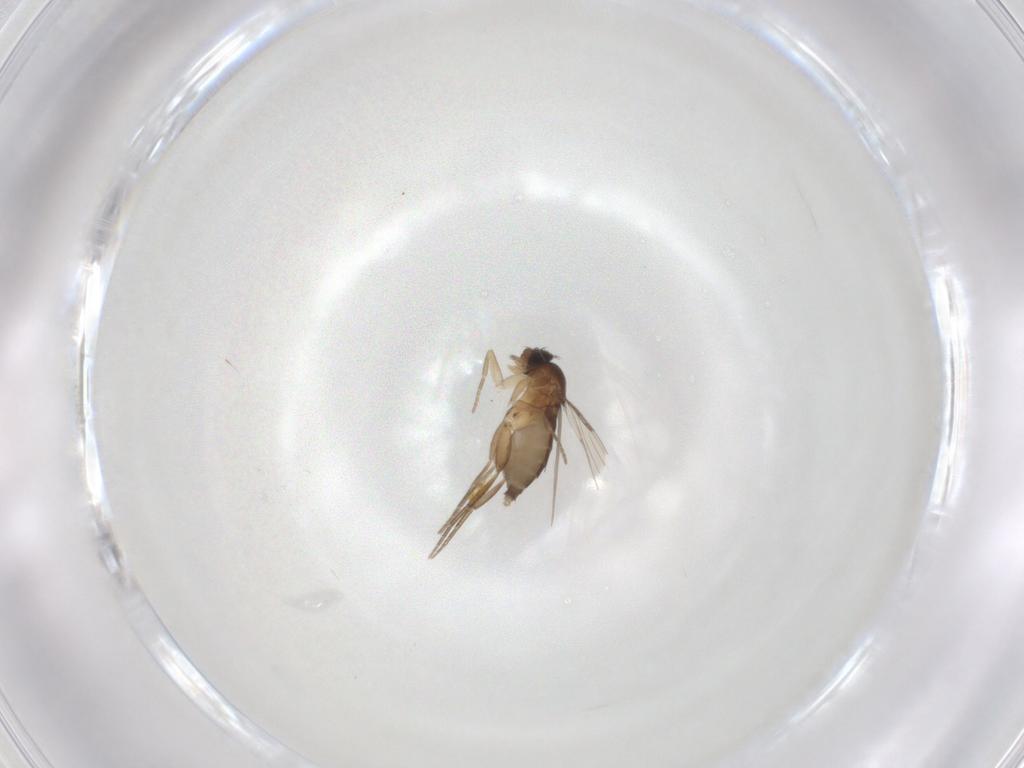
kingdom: Animalia
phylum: Arthropoda
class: Insecta
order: Diptera
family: Phoridae
